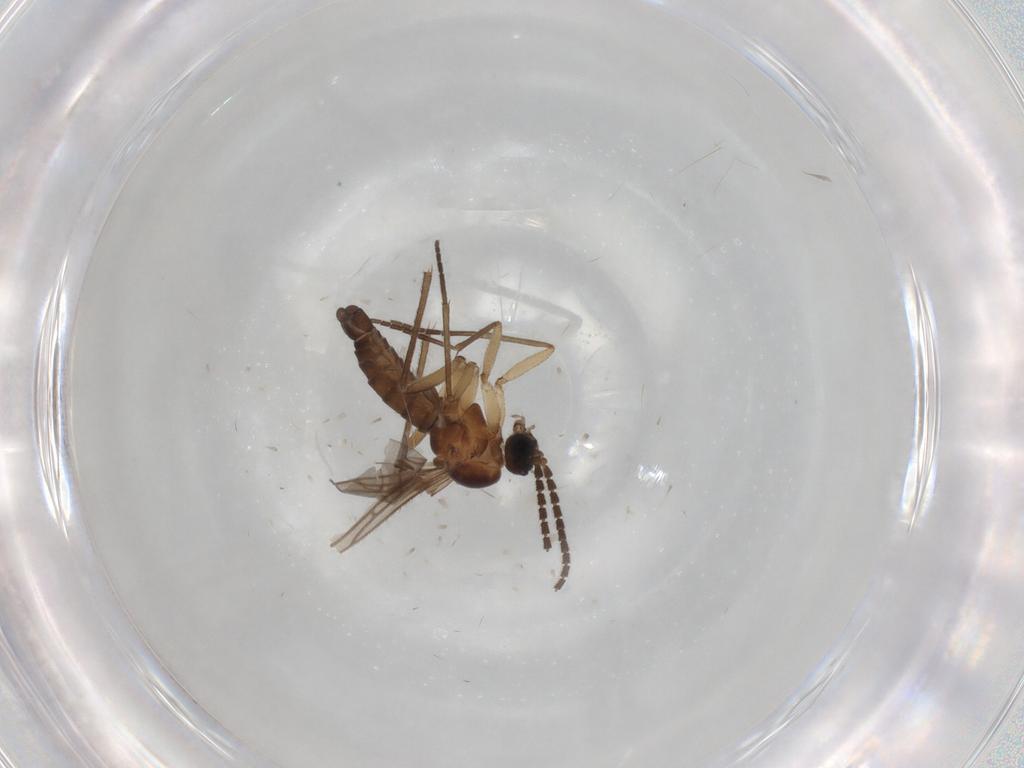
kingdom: Animalia
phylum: Arthropoda
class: Insecta
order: Diptera
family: Sciaridae
